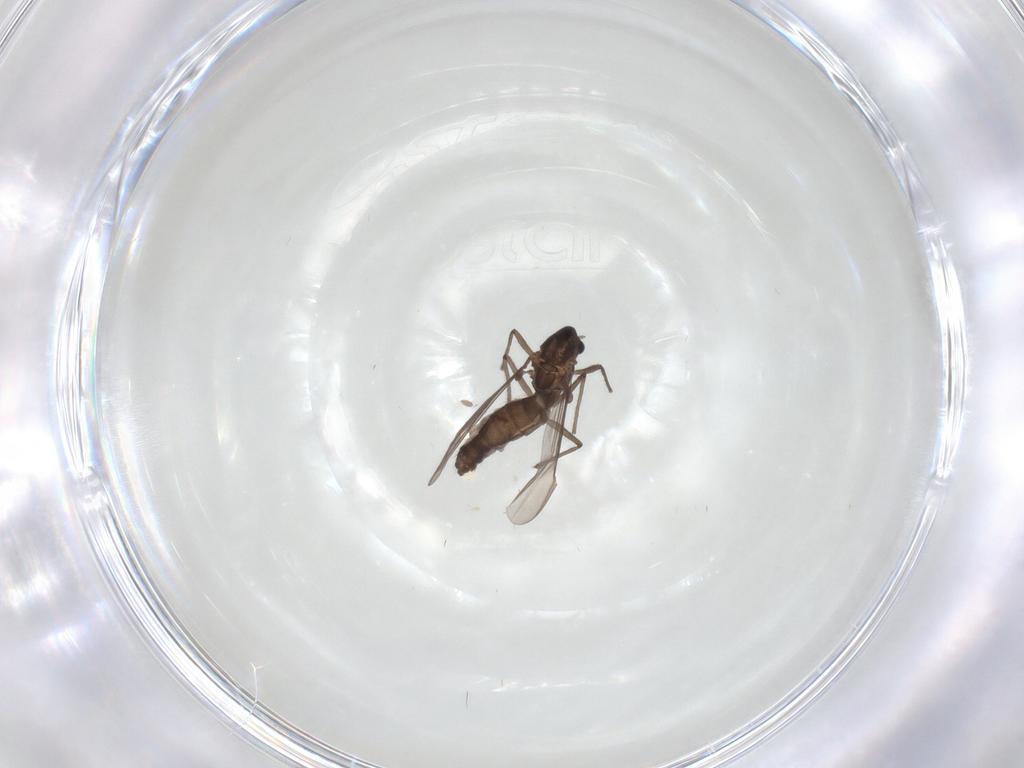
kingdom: Animalia
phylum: Arthropoda
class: Insecta
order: Diptera
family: Chironomidae
